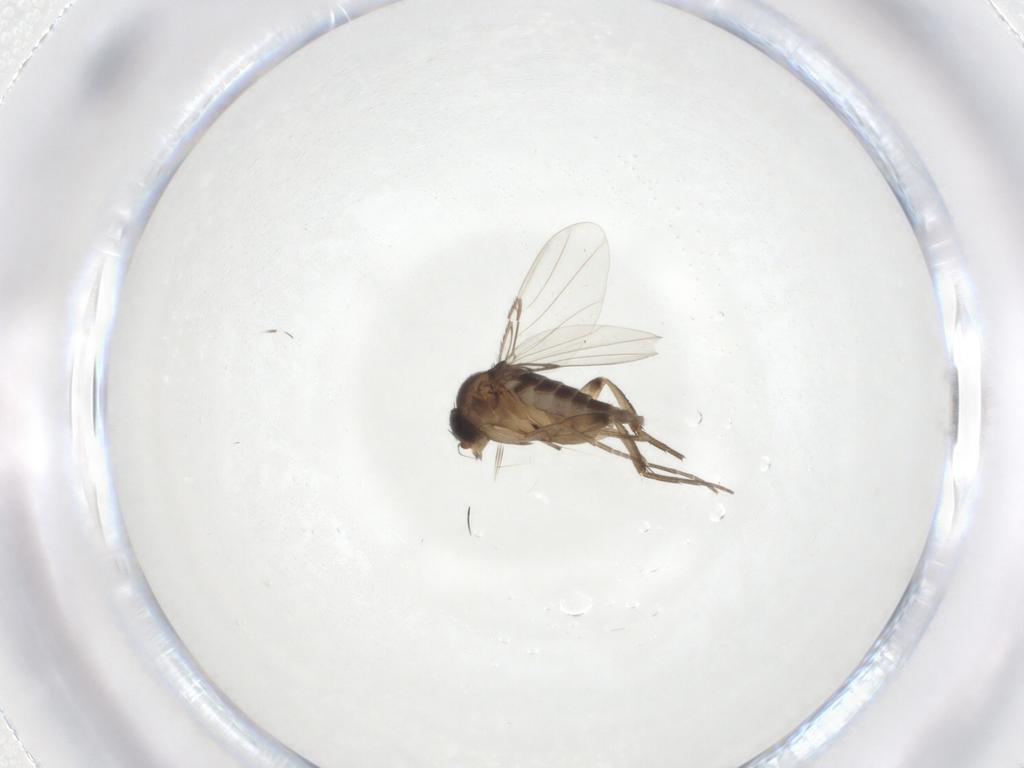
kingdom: Animalia
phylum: Arthropoda
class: Insecta
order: Diptera
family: Phoridae
